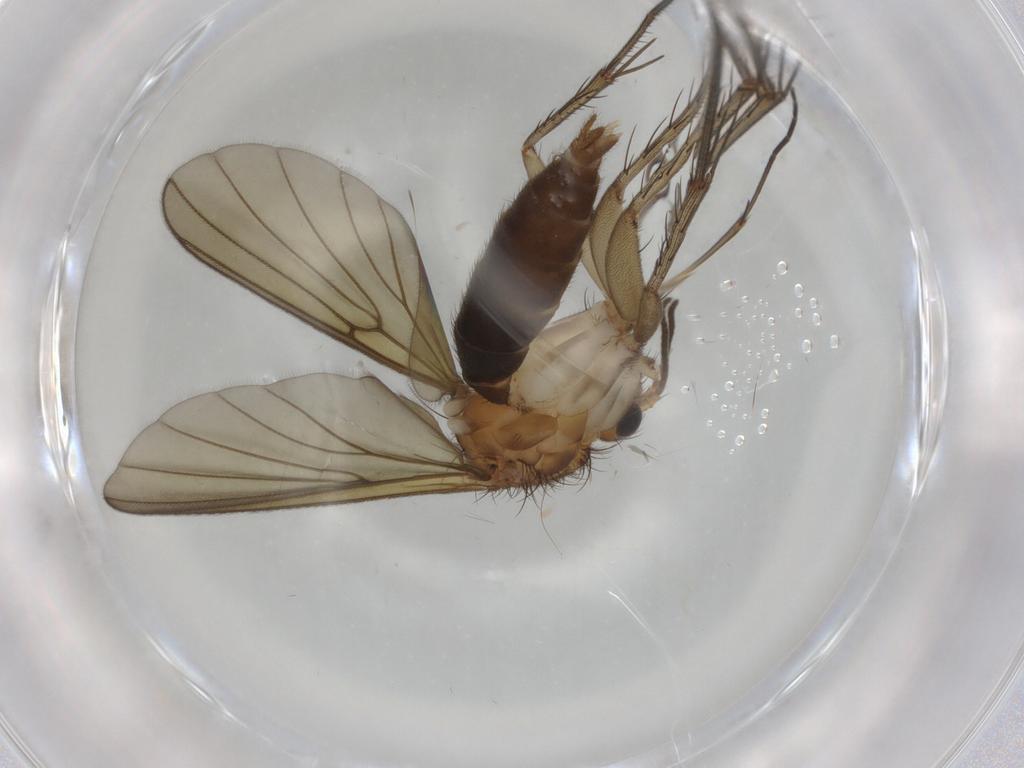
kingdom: Animalia
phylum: Arthropoda
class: Insecta
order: Diptera
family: Mycetophilidae
